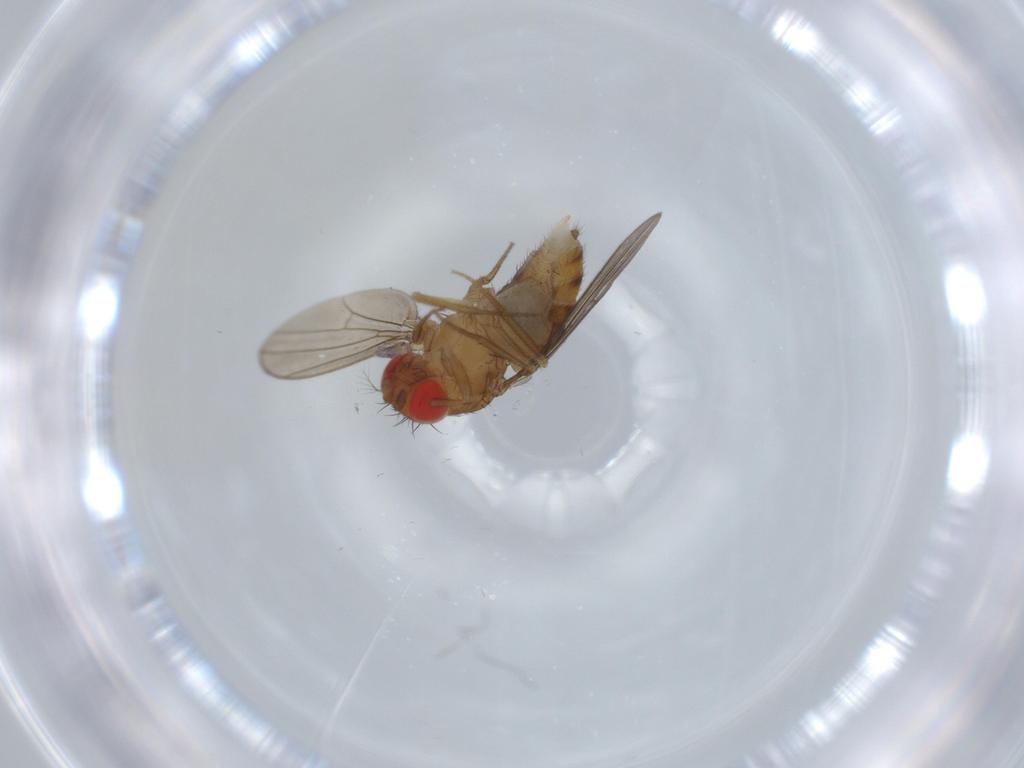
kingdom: Animalia
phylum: Arthropoda
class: Insecta
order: Diptera
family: Drosophilidae
